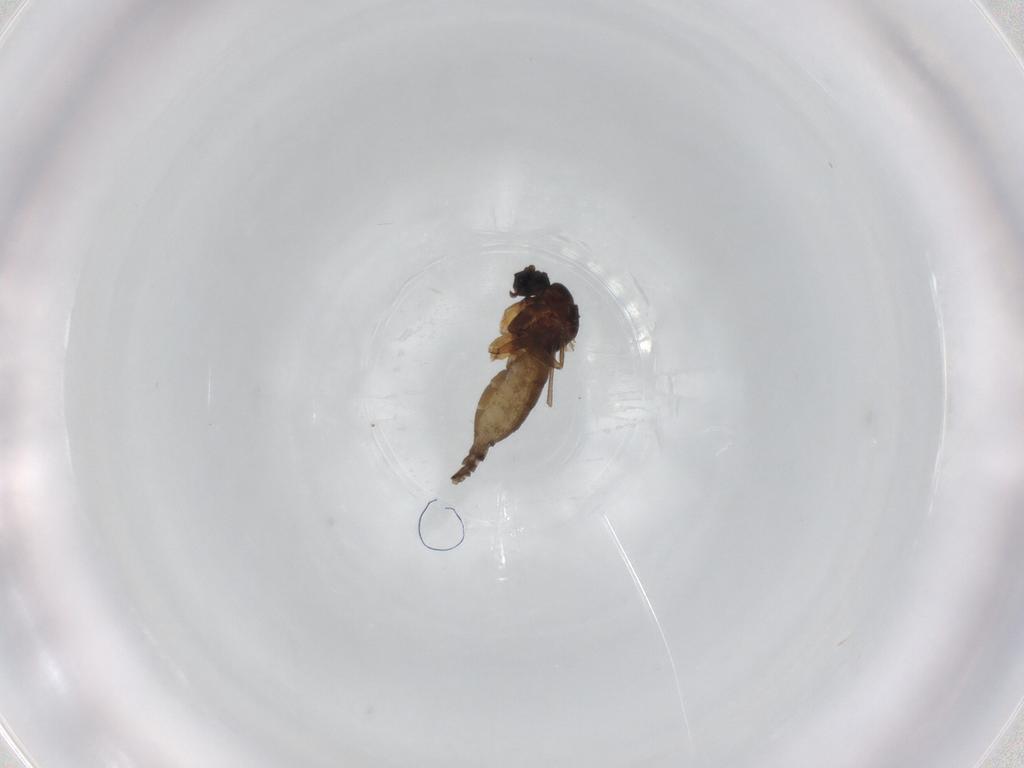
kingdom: Animalia
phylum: Arthropoda
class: Insecta
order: Diptera
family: Sciaridae
